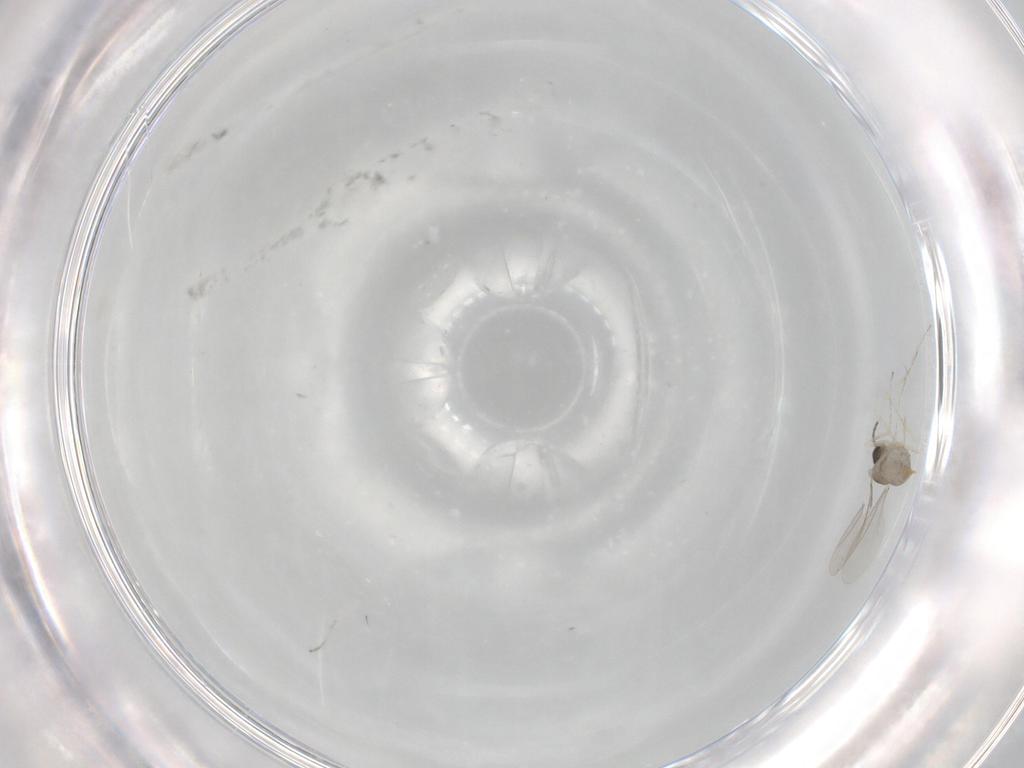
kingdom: Animalia
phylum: Arthropoda
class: Insecta
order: Diptera
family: Cecidomyiidae
